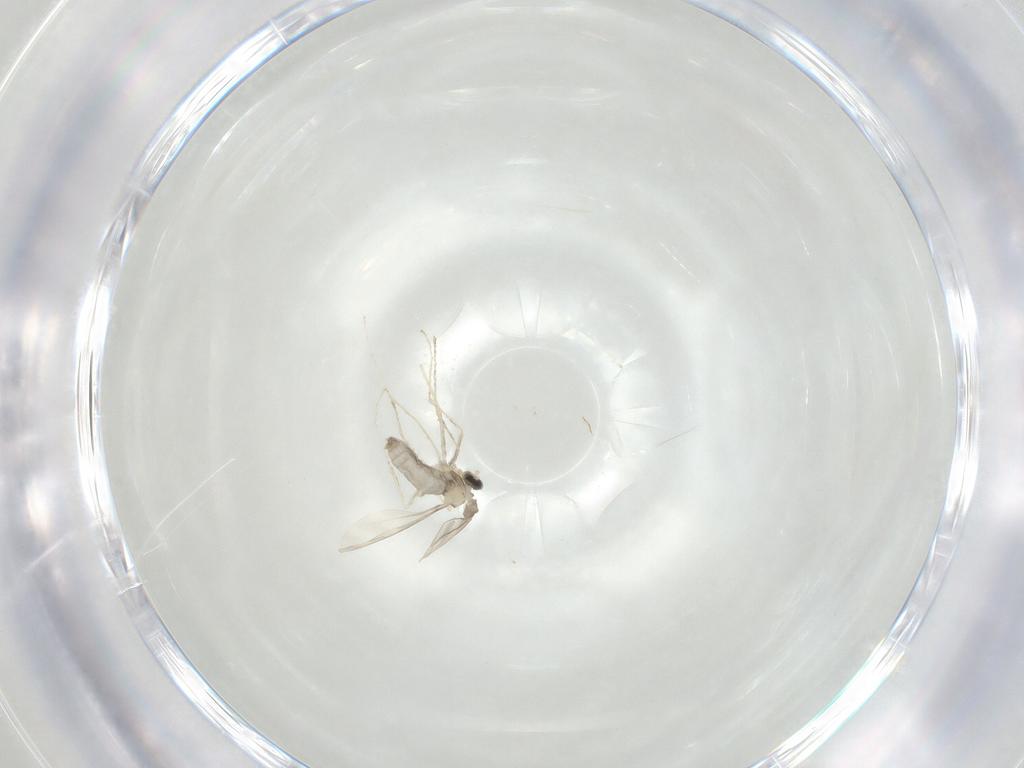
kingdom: Animalia
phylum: Arthropoda
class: Insecta
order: Diptera
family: Cecidomyiidae
